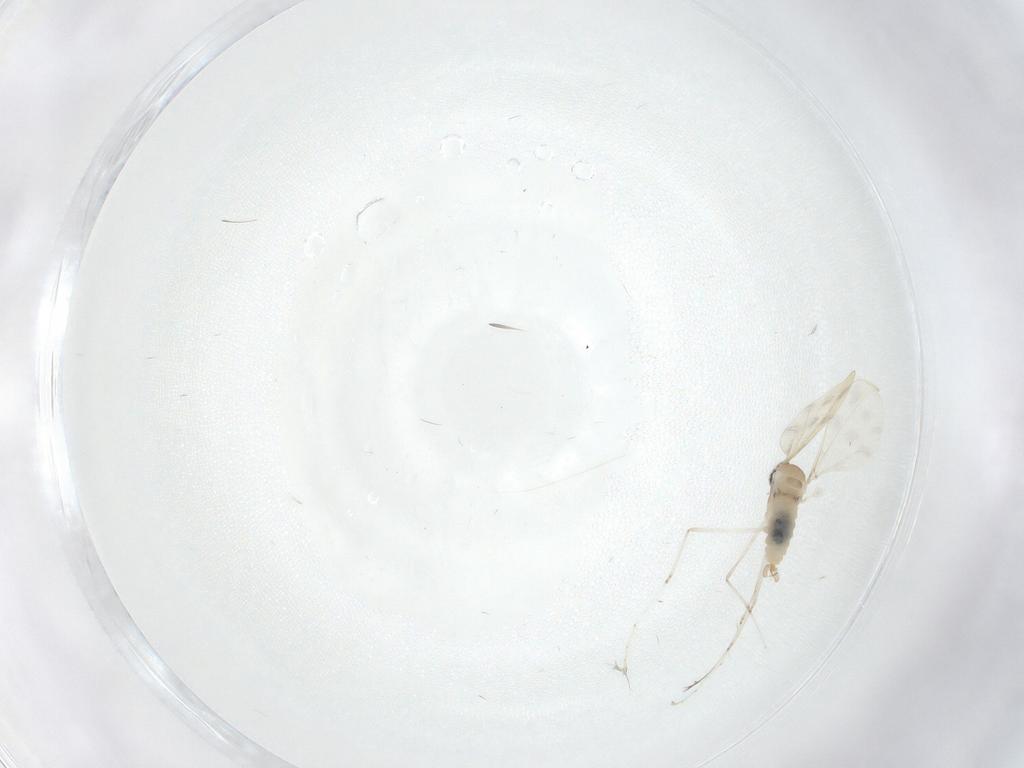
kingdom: Animalia
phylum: Arthropoda
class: Insecta
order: Diptera
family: Cecidomyiidae
